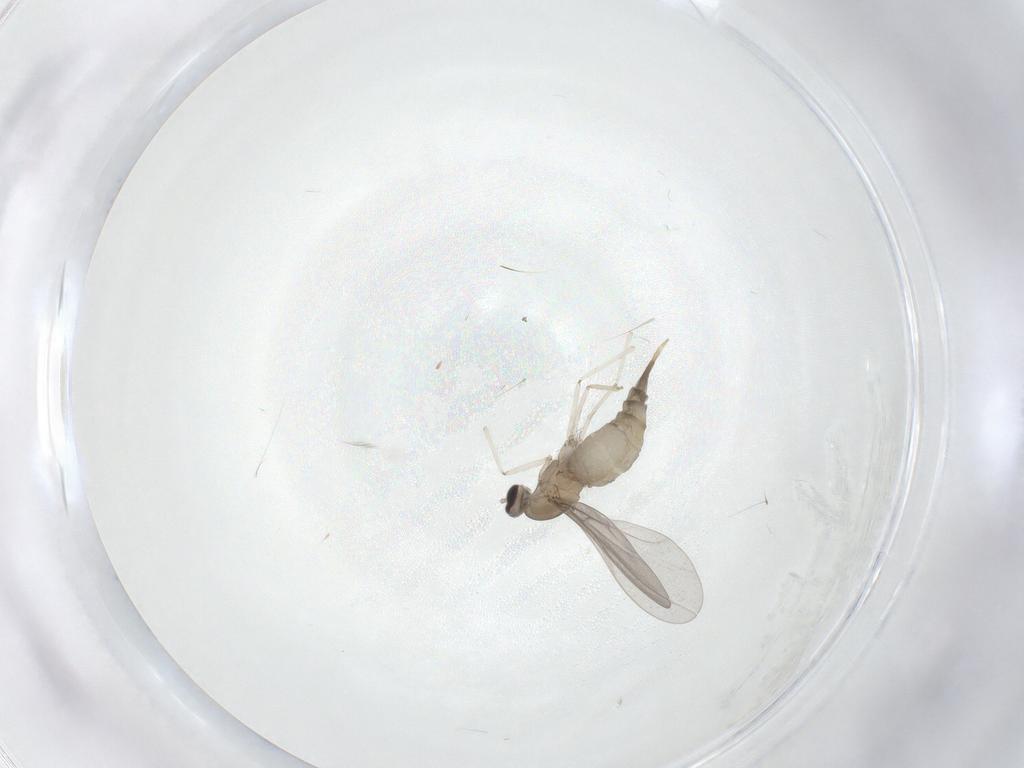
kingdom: Animalia
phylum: Arthropoda
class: Insecta
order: Diptera
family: Cecidomyiidae
